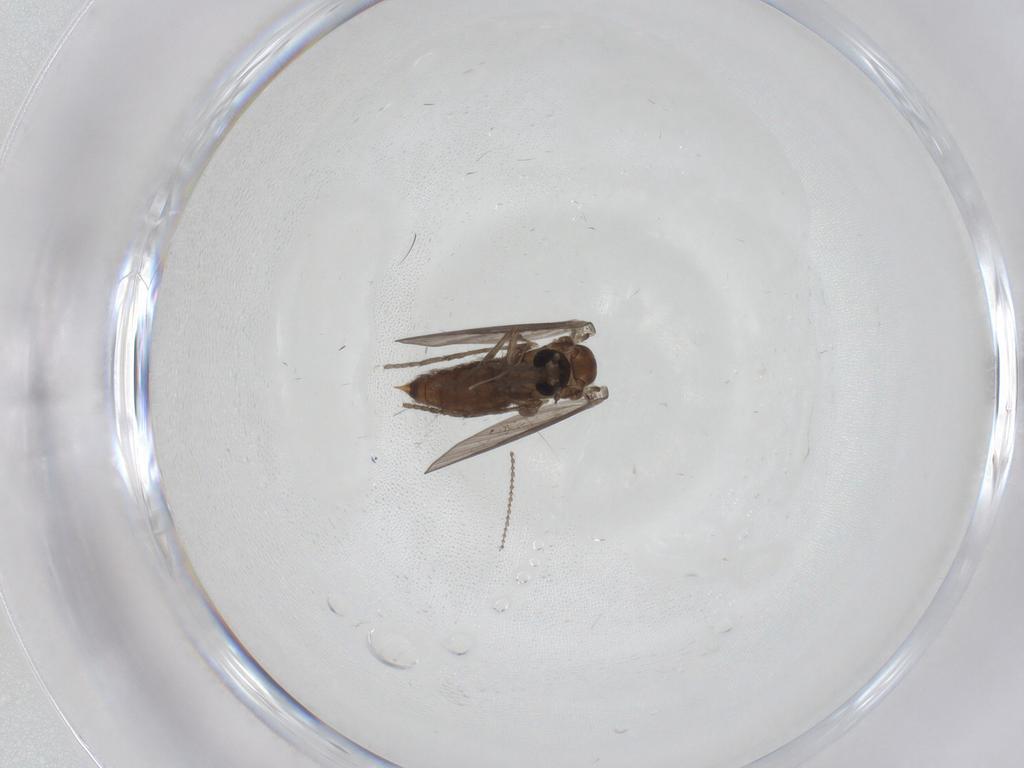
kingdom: Animalia
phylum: Arthropoda
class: Insecta
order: Diptera
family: Psychodidae
